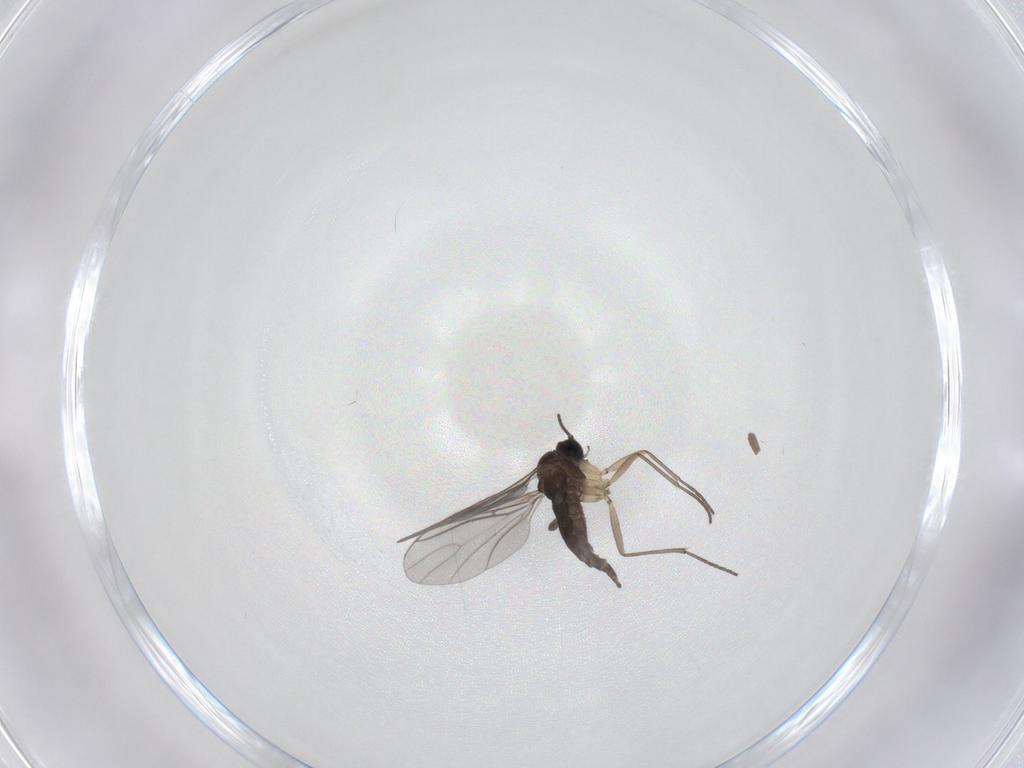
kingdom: Animalia
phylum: Arthropoda
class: Insecta
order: Diptera
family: Sciaridae
